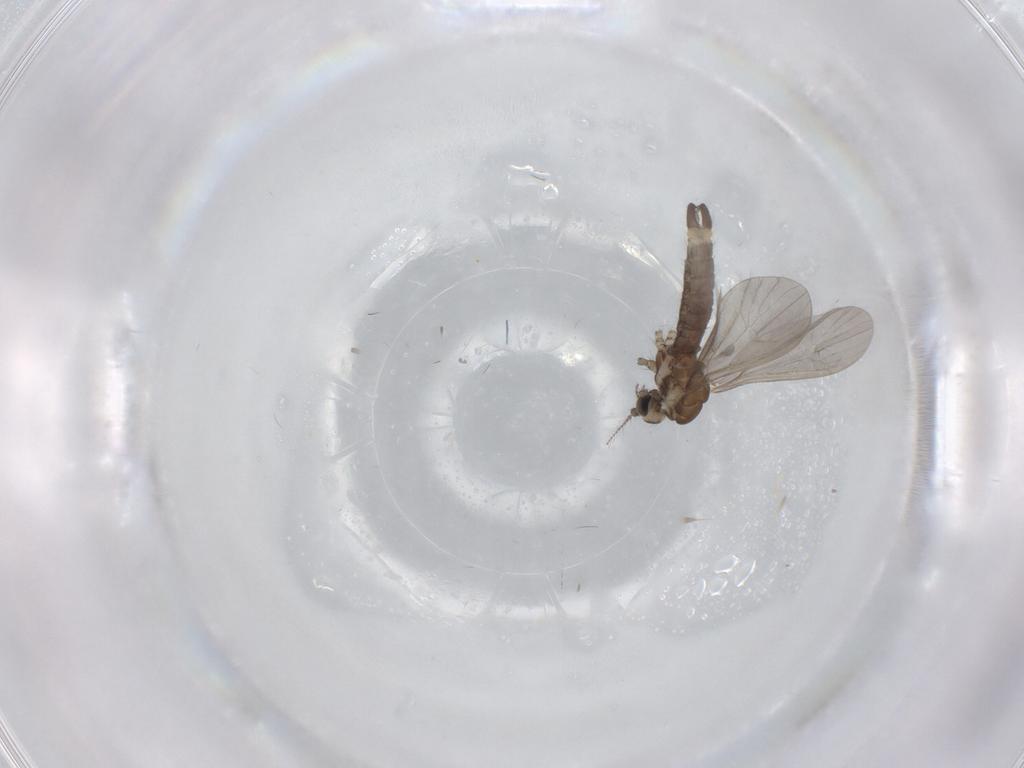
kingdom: Animalia
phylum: Arthropoda
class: Insecta
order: Diptera
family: Limoniidae
